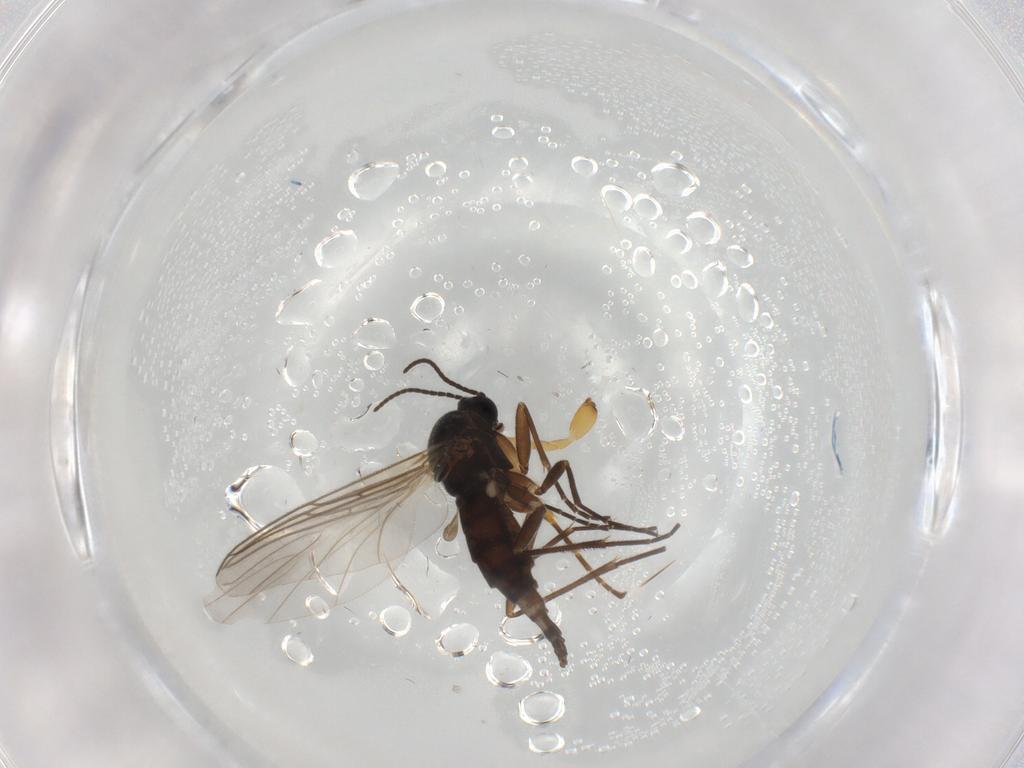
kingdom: Animalia
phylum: Arthropoda
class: Insecta
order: Diptera
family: Sciaridae
